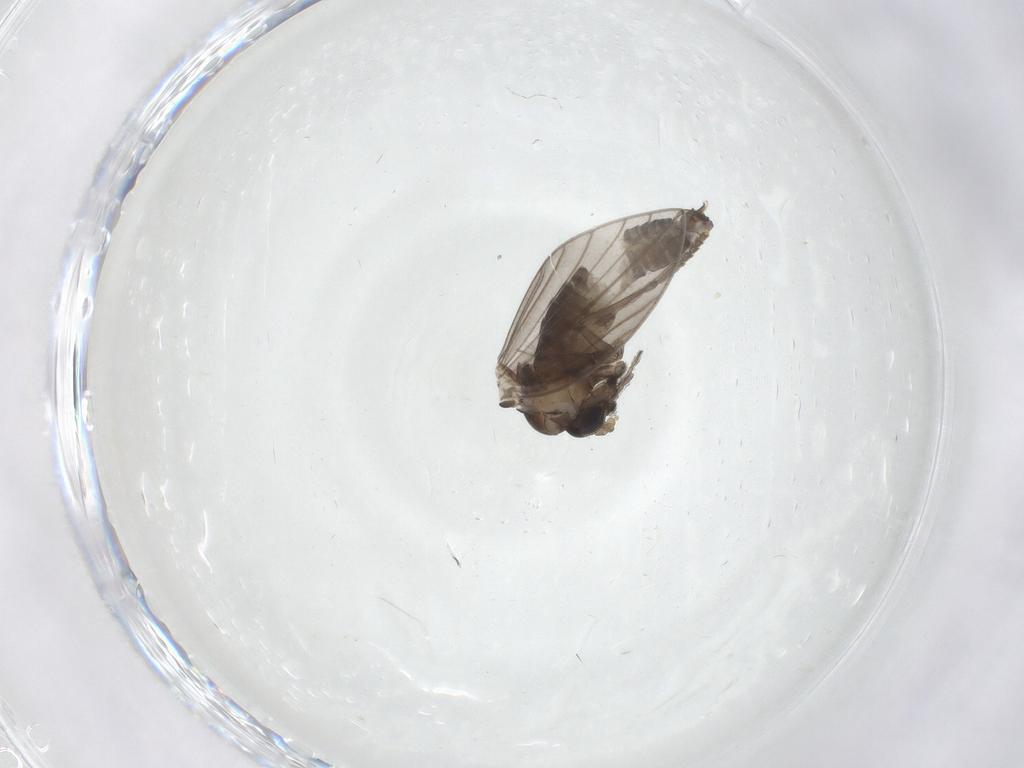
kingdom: Animalia
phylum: Arthropoda
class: Insecta
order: Diptera
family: Psychodidae
